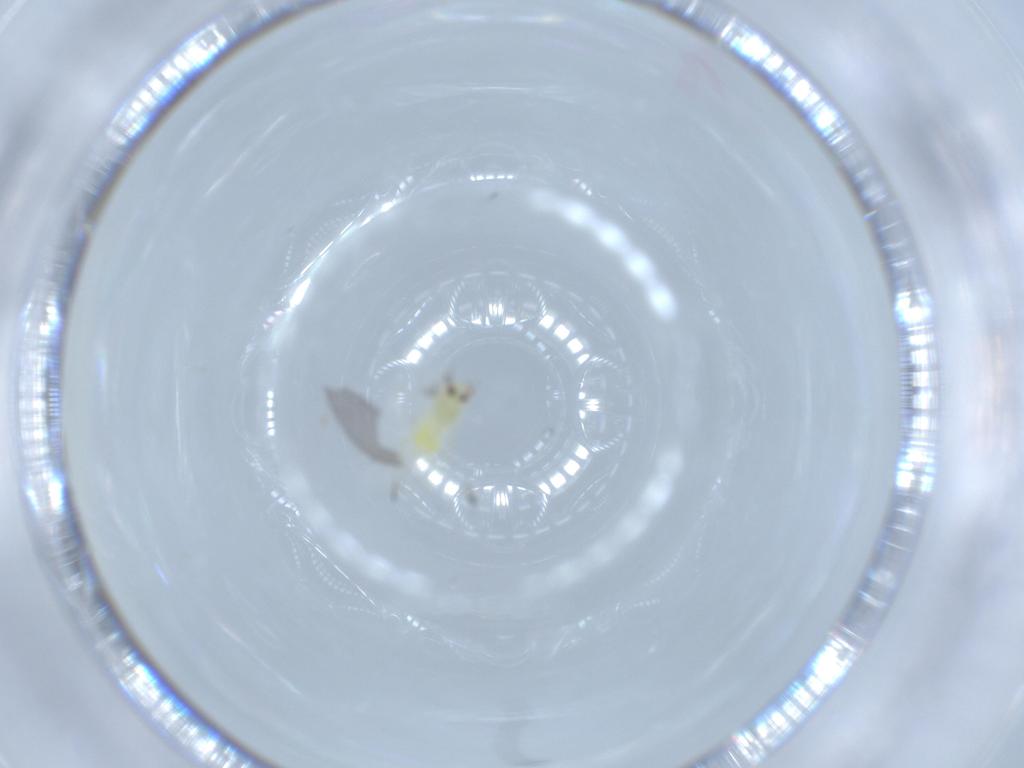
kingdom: Animalia
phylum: Arthropoda
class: Insecta
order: Hemiptera
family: Aleyrodidae
